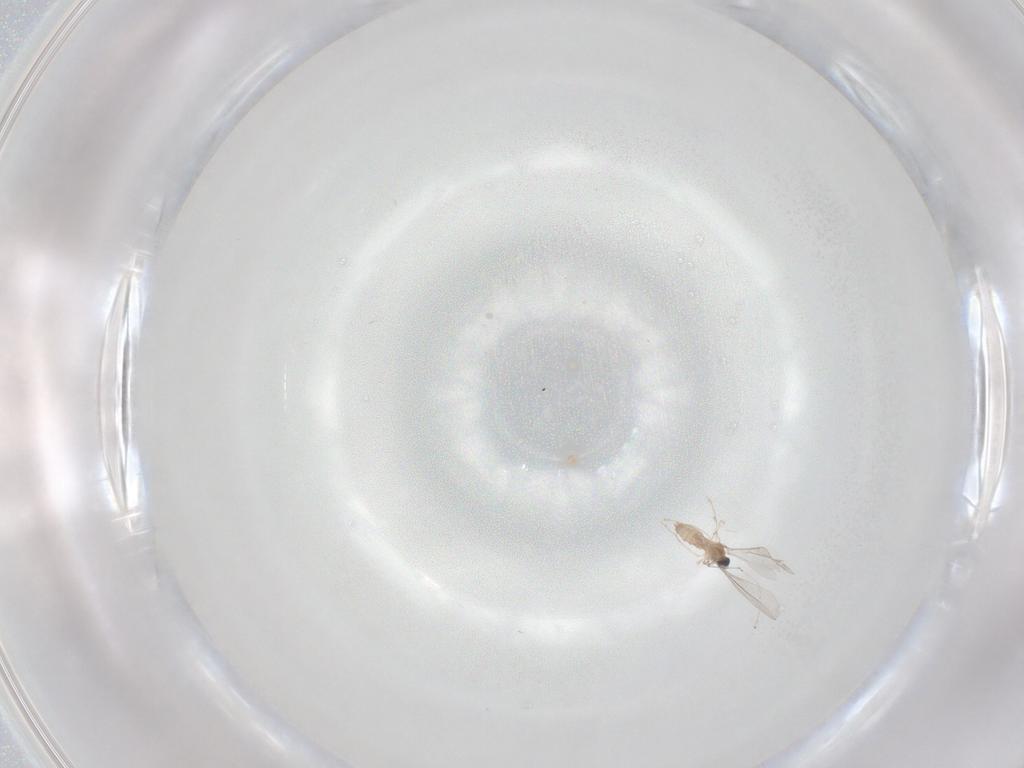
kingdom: Animalia
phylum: Arthropoda
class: Insecta
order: Diptera
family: Cecidomyiidae
